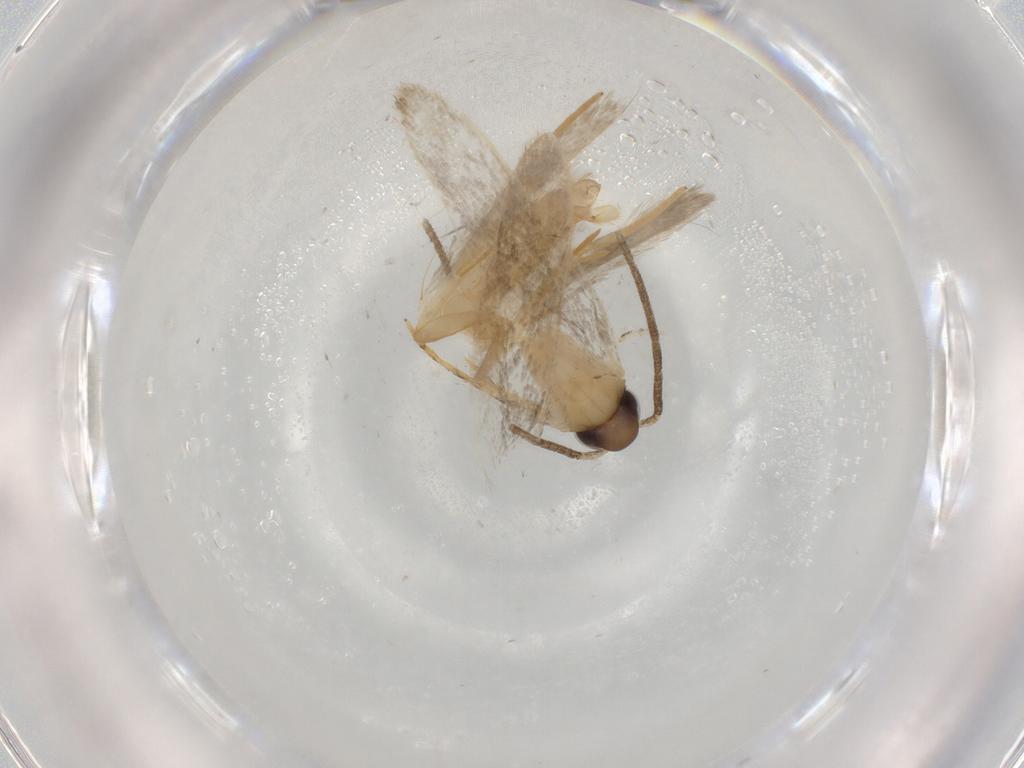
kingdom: Animalia
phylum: Arthropoda
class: Insecta
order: Lepidoptera
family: Autostichidae
